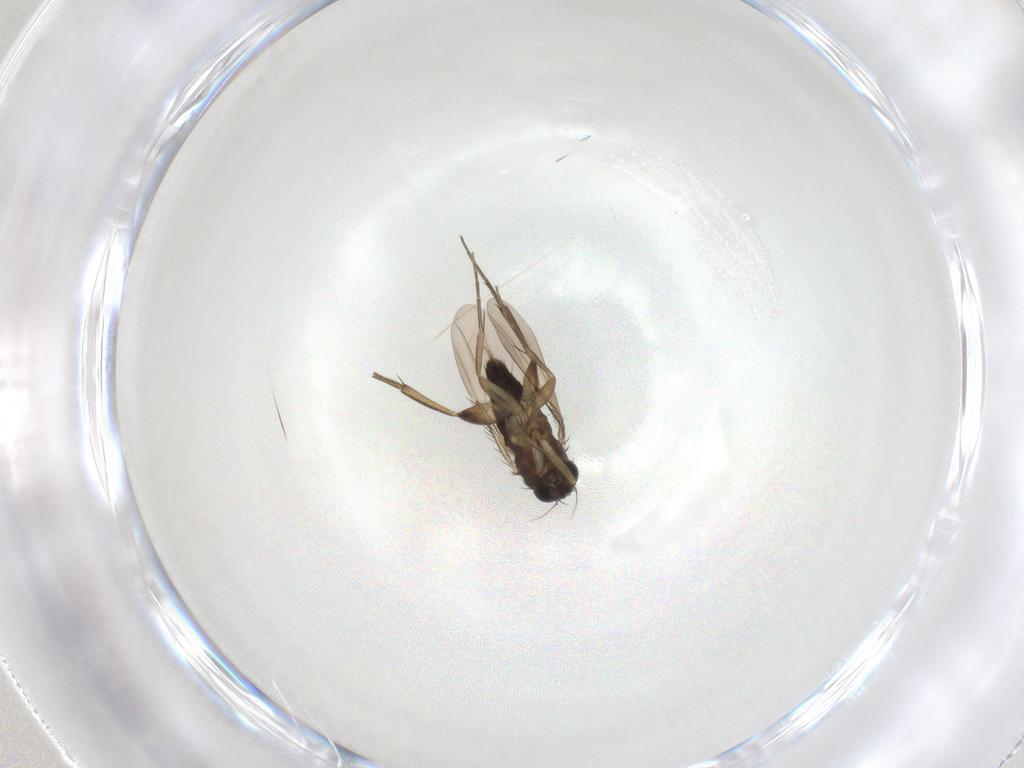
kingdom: Animalia
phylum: Arthropoda
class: Insecta
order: Diptera
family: Phoridae
